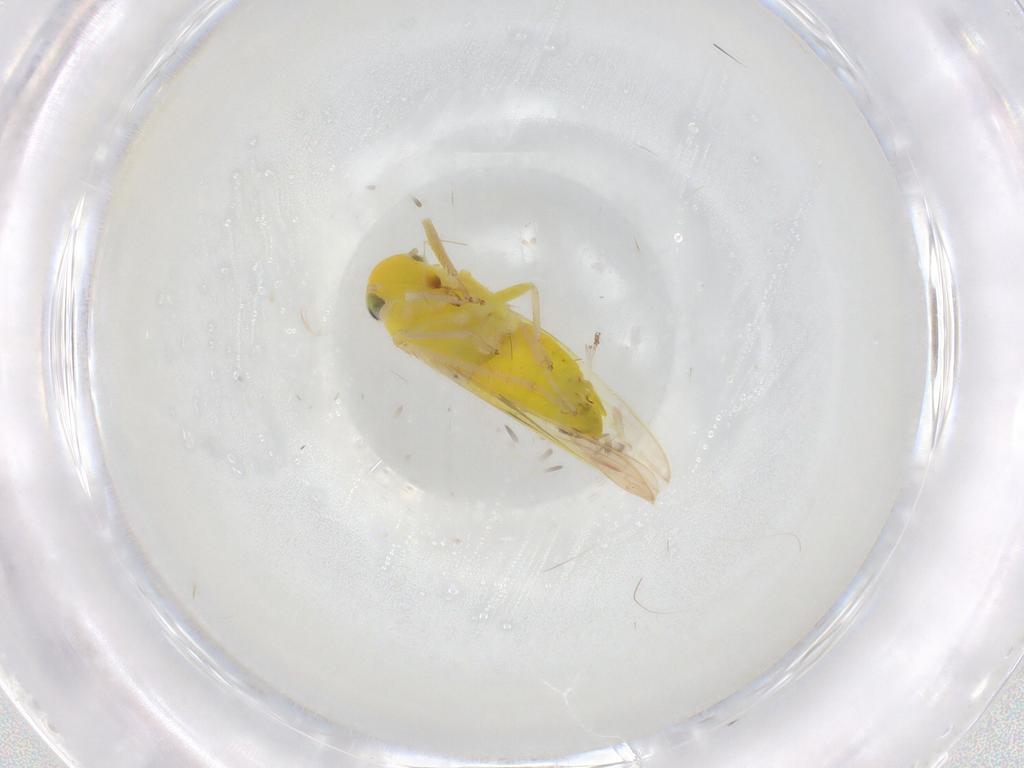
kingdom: Animalia
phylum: Arthropoda
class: Insecta
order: Hemiptera
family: Cicadellidae
